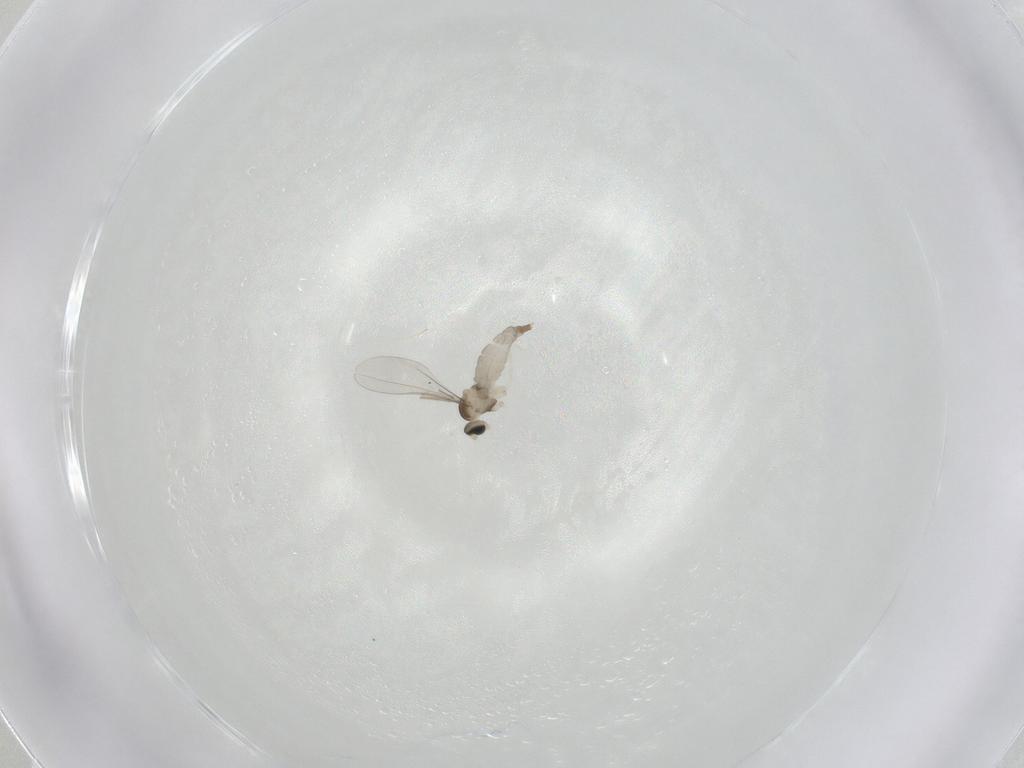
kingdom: Animalia
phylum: Arthropoda
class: Insecta
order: Diptera
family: Cecidomyiidae
